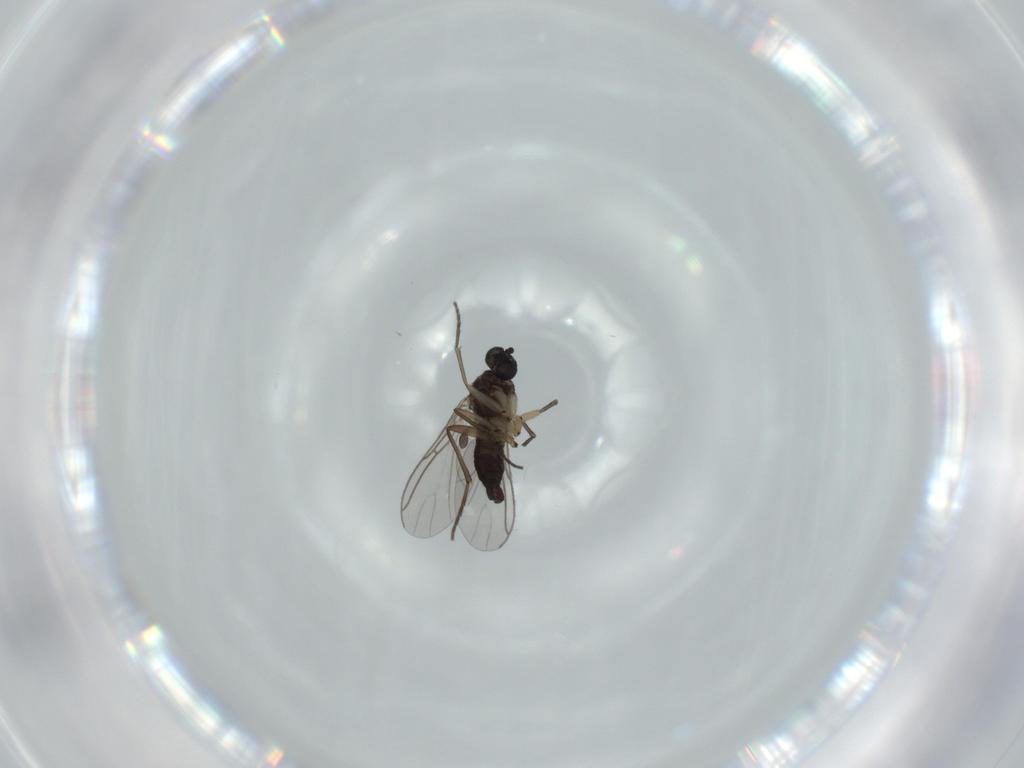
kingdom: Animalia
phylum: Arthropoda
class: Insecta
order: Diptera
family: Sciaridae
